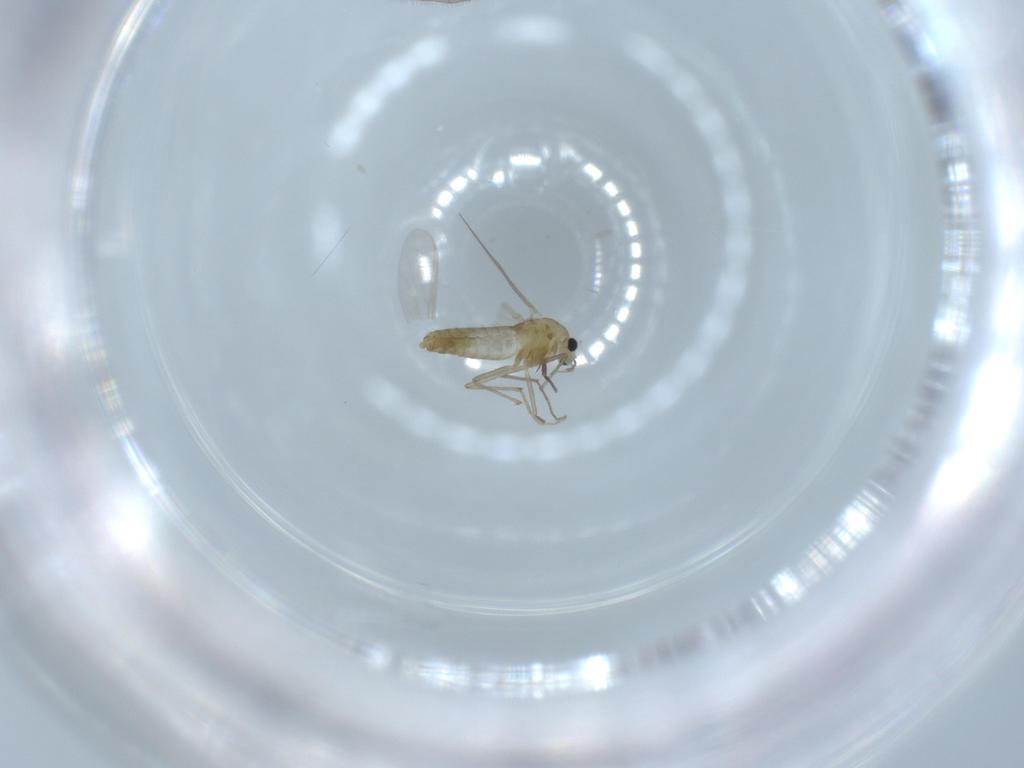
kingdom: Animalia
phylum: Arthropoda
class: Insecta
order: Diptera
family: Chironomidae
